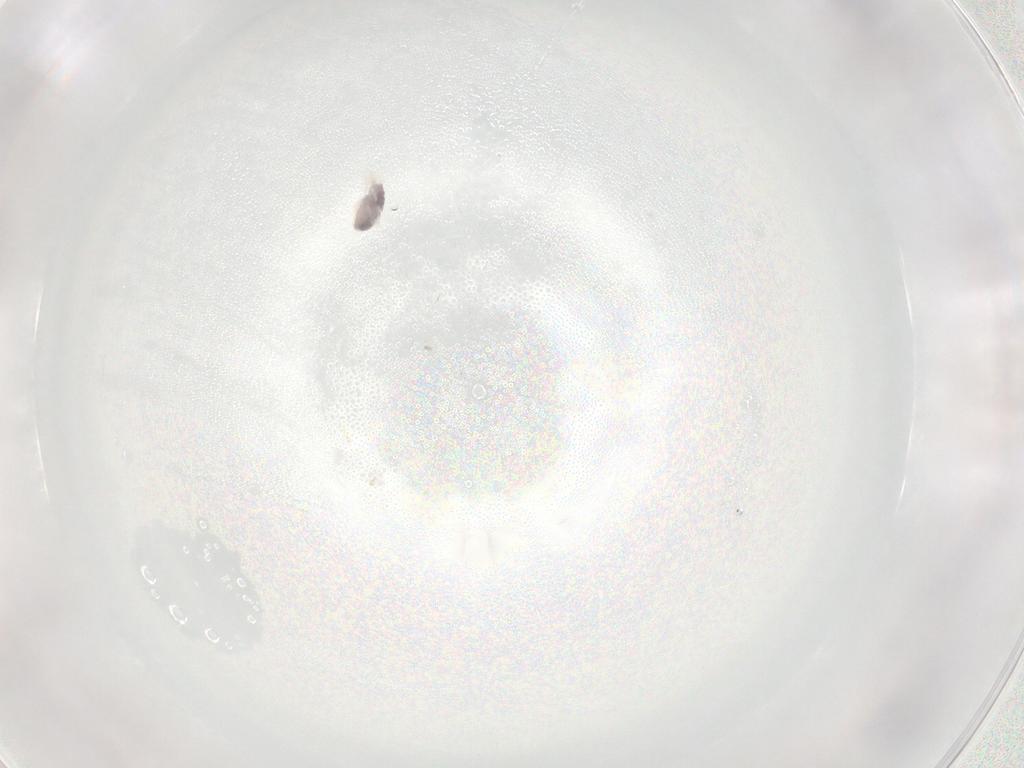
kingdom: Animalia
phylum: Arthropoda
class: Arachnida
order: Trombidiformes
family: Eupodidae
